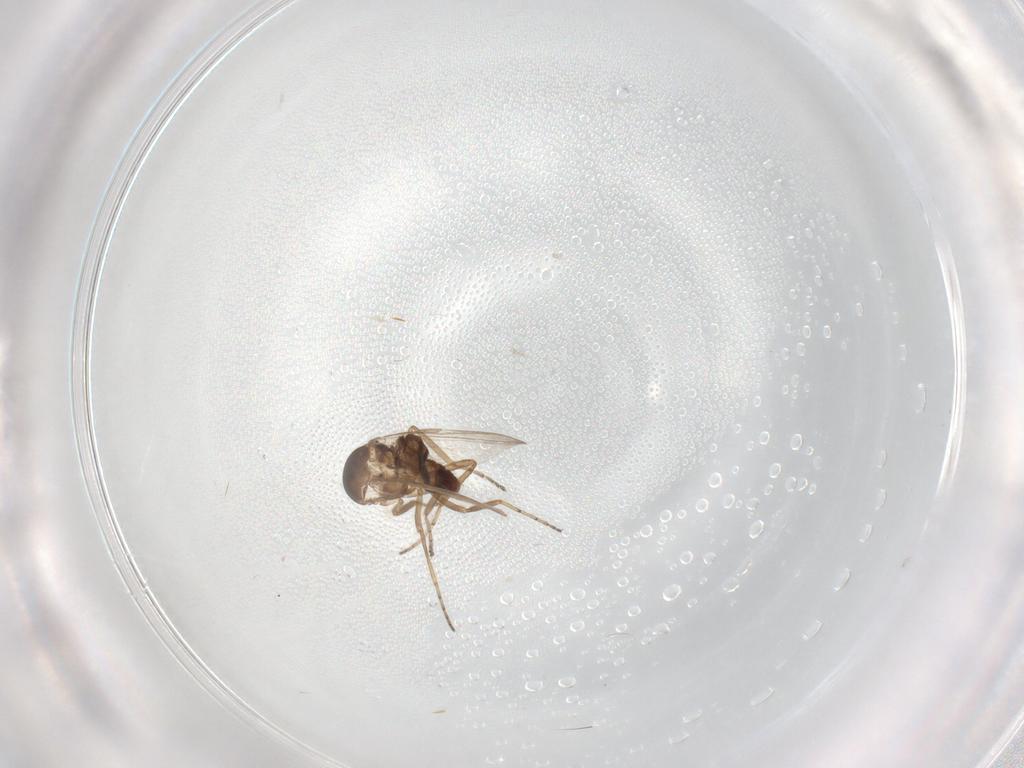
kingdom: Animalia
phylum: Arthropoda
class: Insecta
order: Diptera
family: Ceratopogonidae
